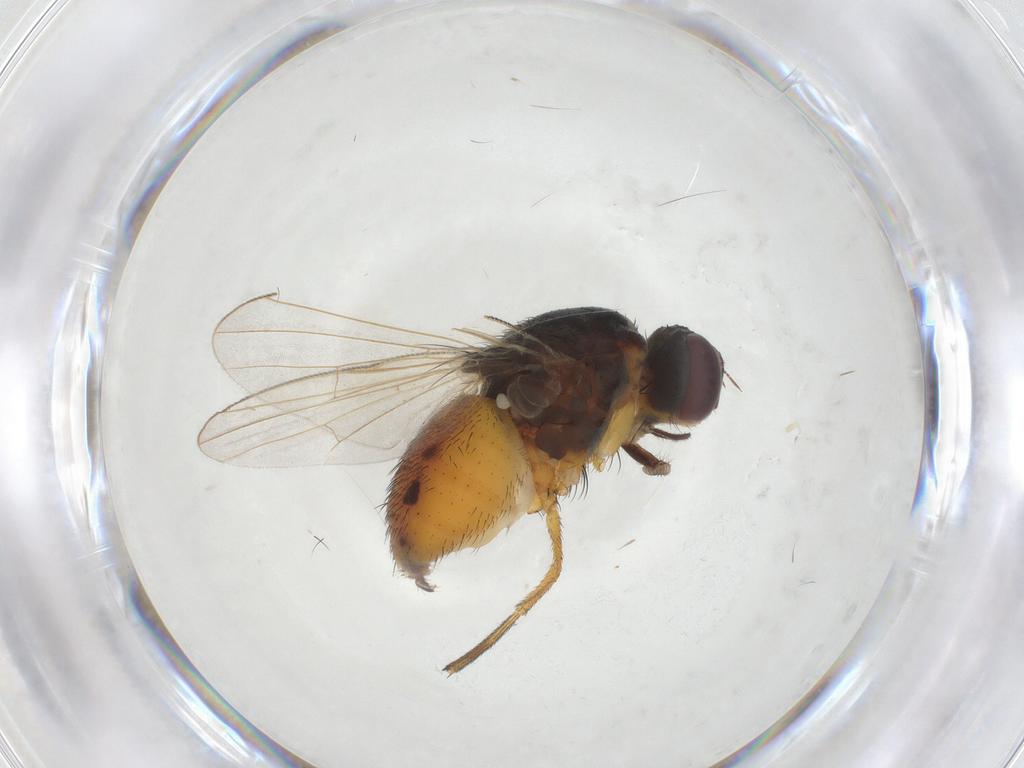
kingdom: Animalia
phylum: Arthropoda
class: Insecta
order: Diptera
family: Muscidae
